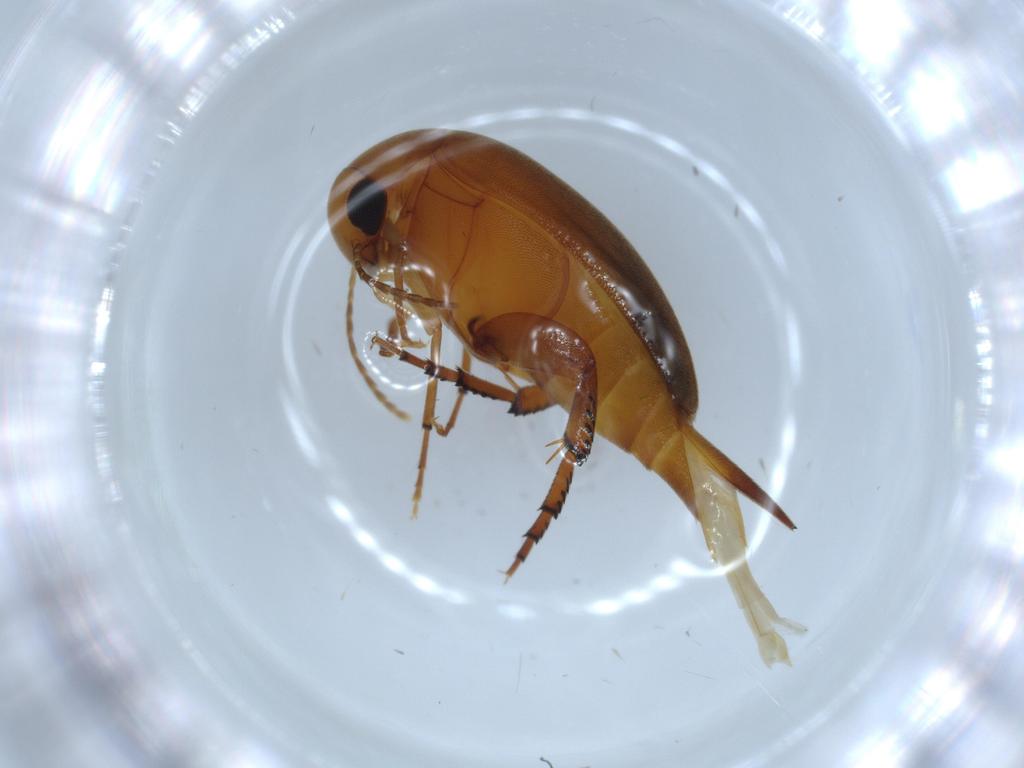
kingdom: Animalia
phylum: Arthropoda
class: Insecta
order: Coleoptera
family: Mordellidae
